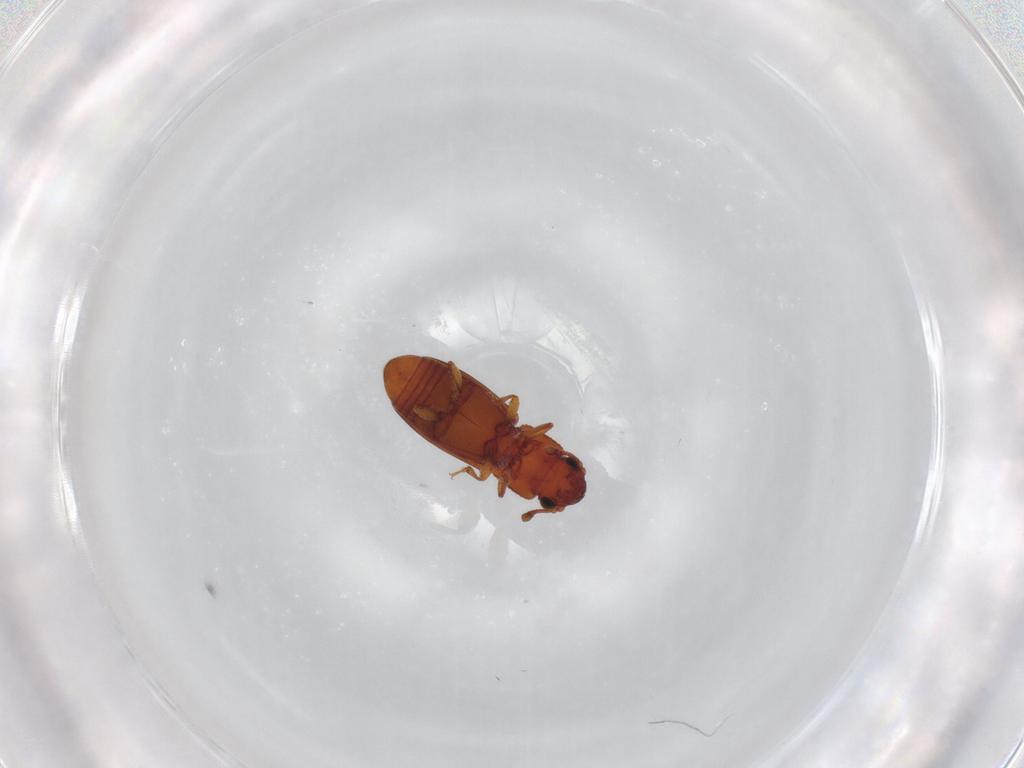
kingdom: Animalia
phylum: Arthropoda
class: Insecta
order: Coleoptera
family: Monotomidae
